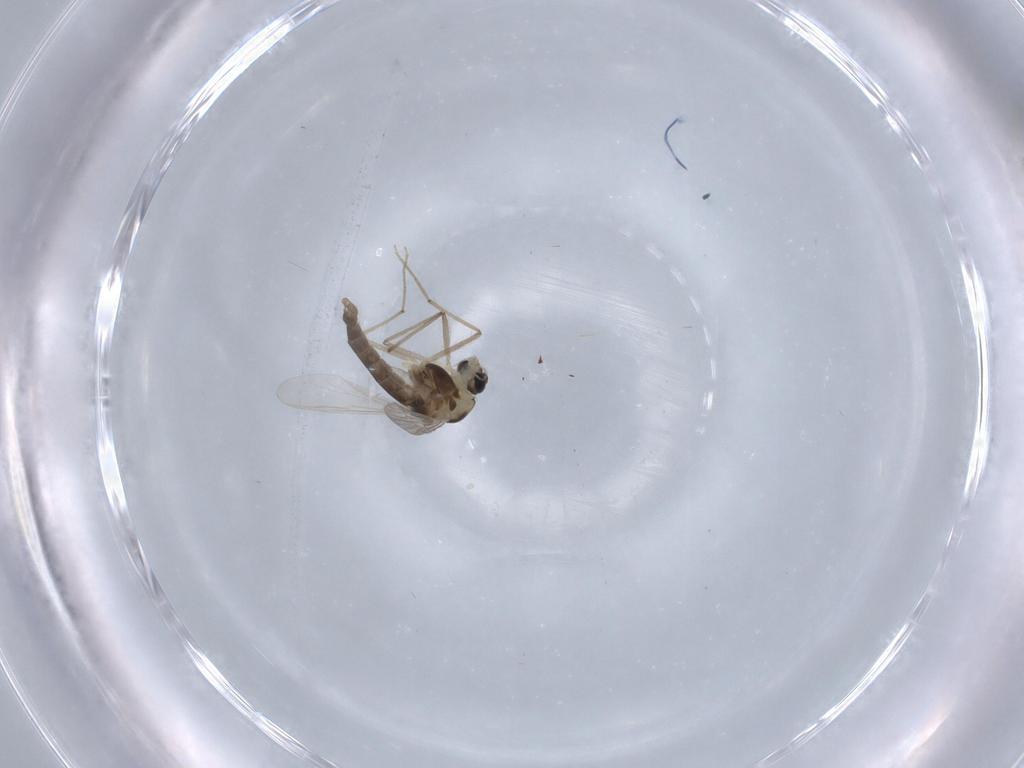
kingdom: Animalia
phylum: Arthropoda
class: Insecta
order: Diptera
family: Chironomidae
